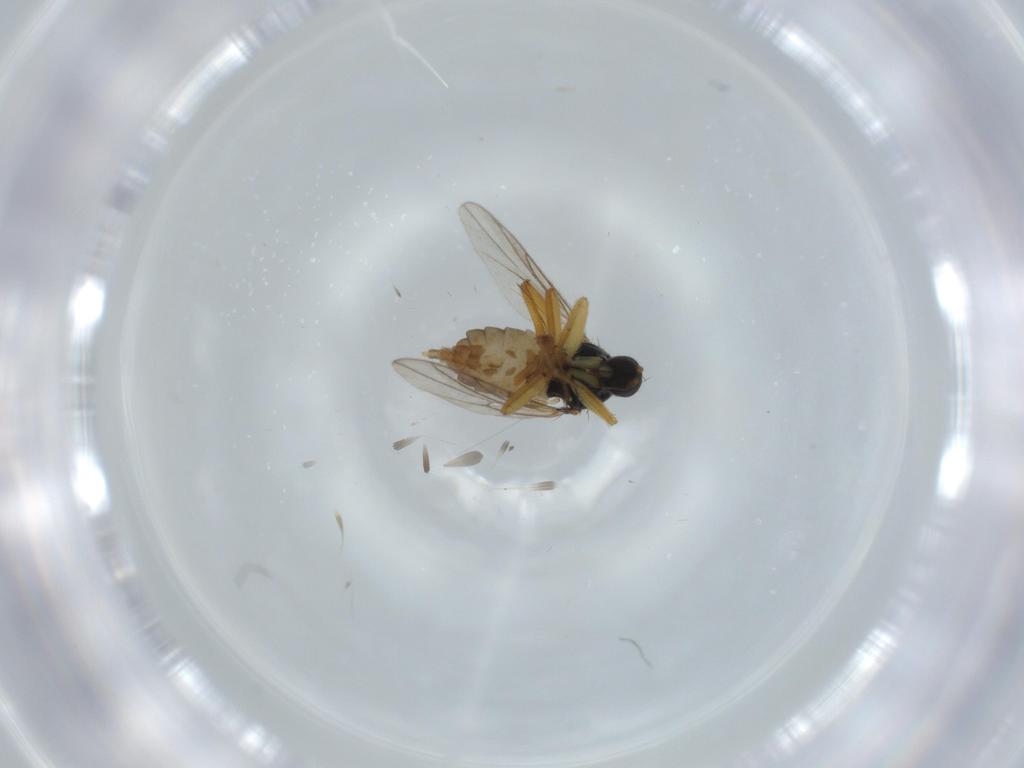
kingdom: Animalia
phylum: Arthropoda
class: Insecta
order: Diptera
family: Hybotidae
